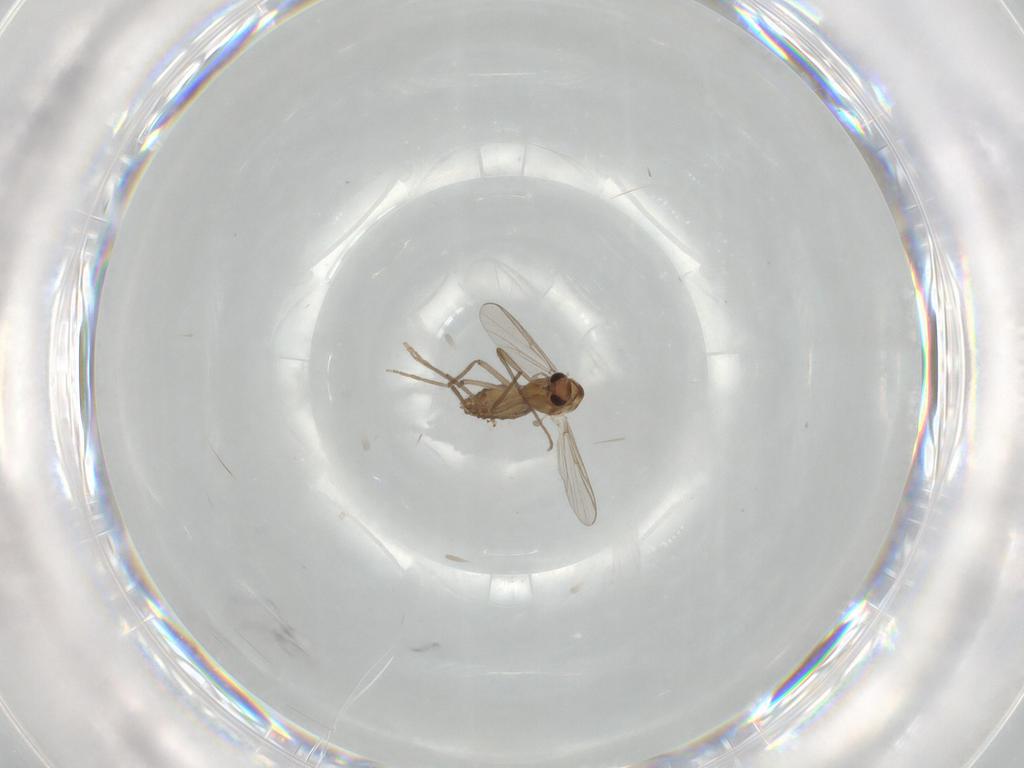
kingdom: Animalia
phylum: Arthropoda
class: Insecta
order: Diptera
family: Chironomidae
